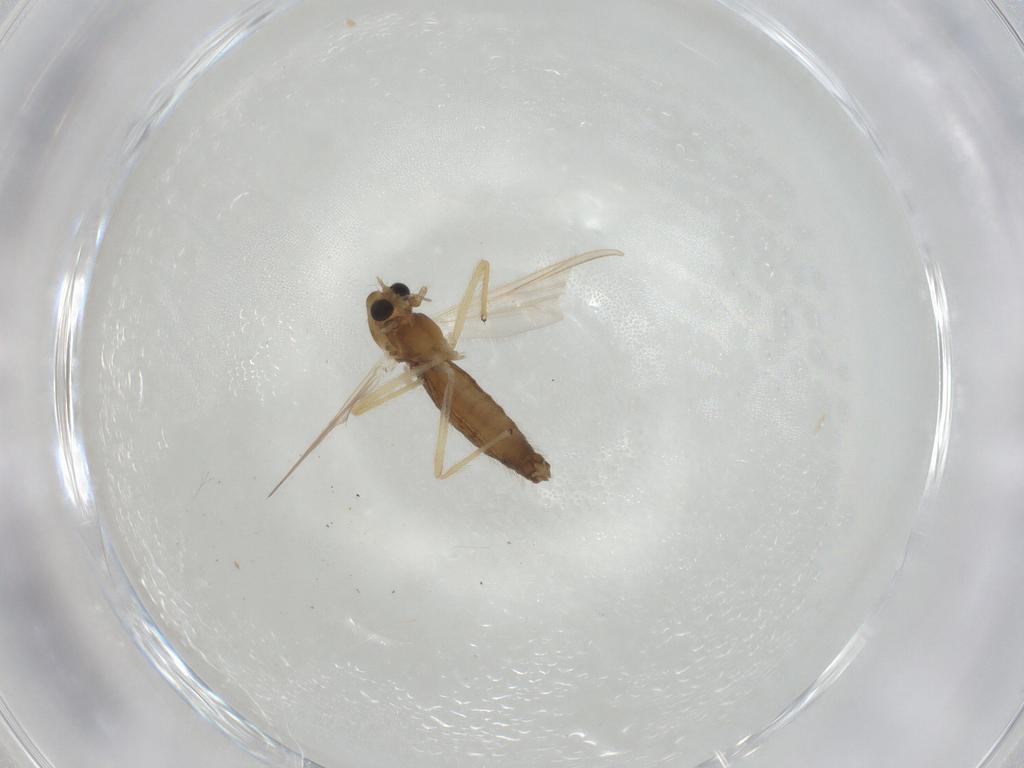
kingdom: Animalia
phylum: Arthropoda
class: Insecta
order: Diptera
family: Chironomidae
